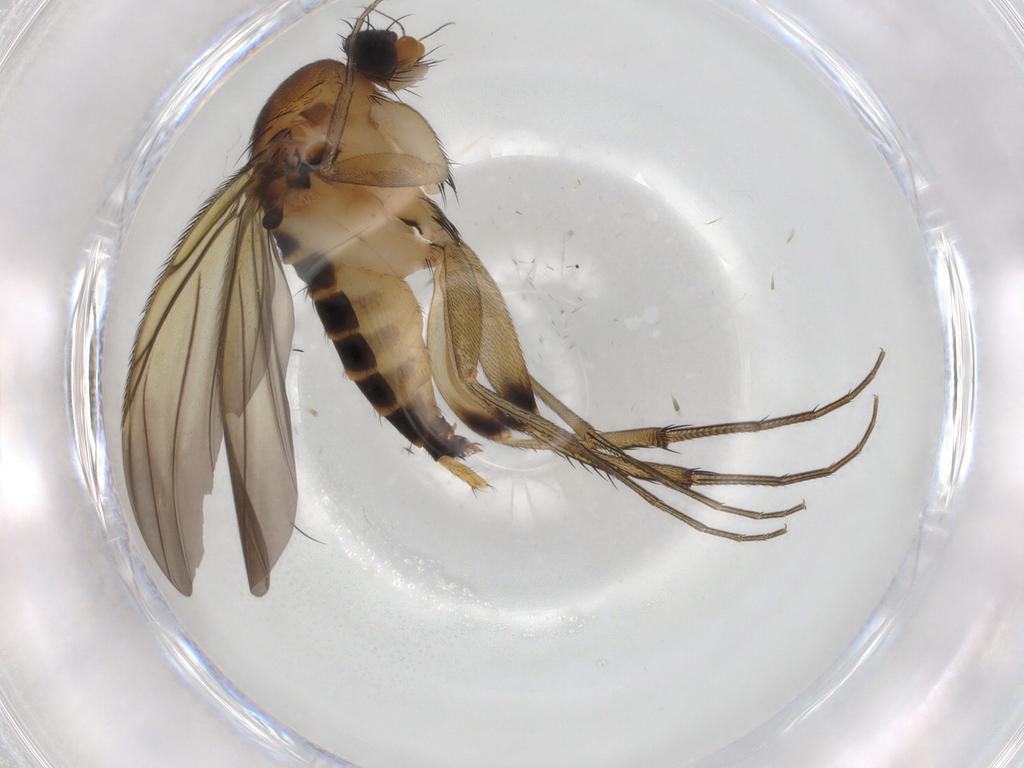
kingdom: Animalia
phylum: Arthropoda
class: Insecta
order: Diptera
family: Phoridae
